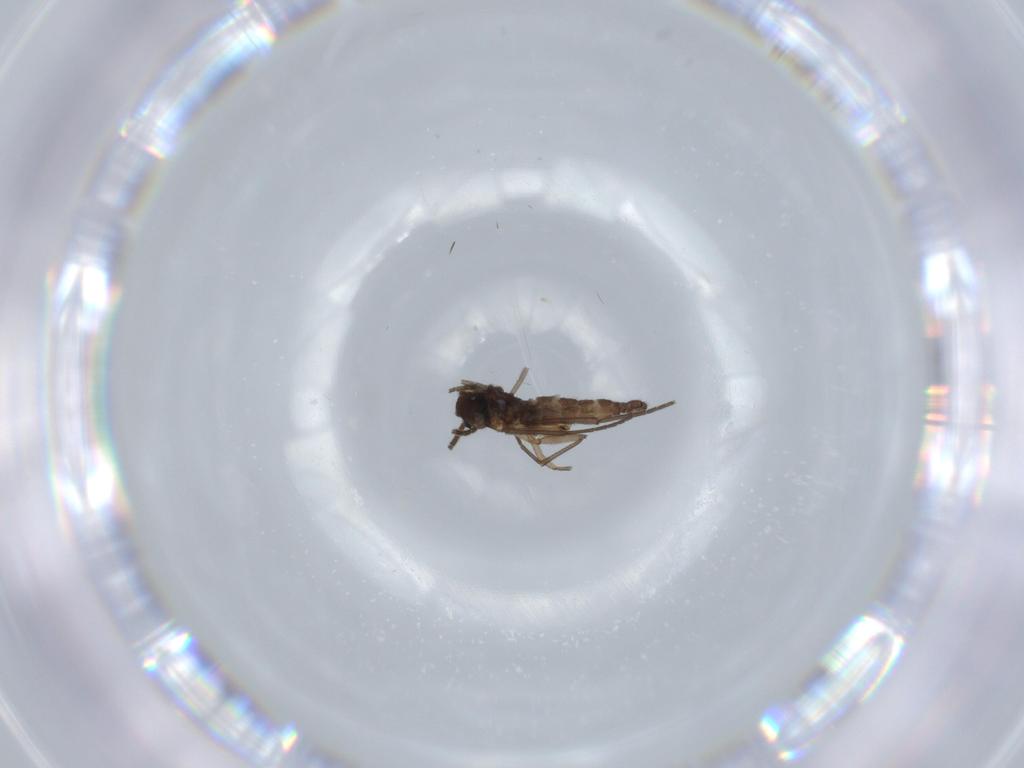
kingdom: Animalia
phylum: Arthropoda
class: Insecta
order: Diptera
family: Sciaridae
